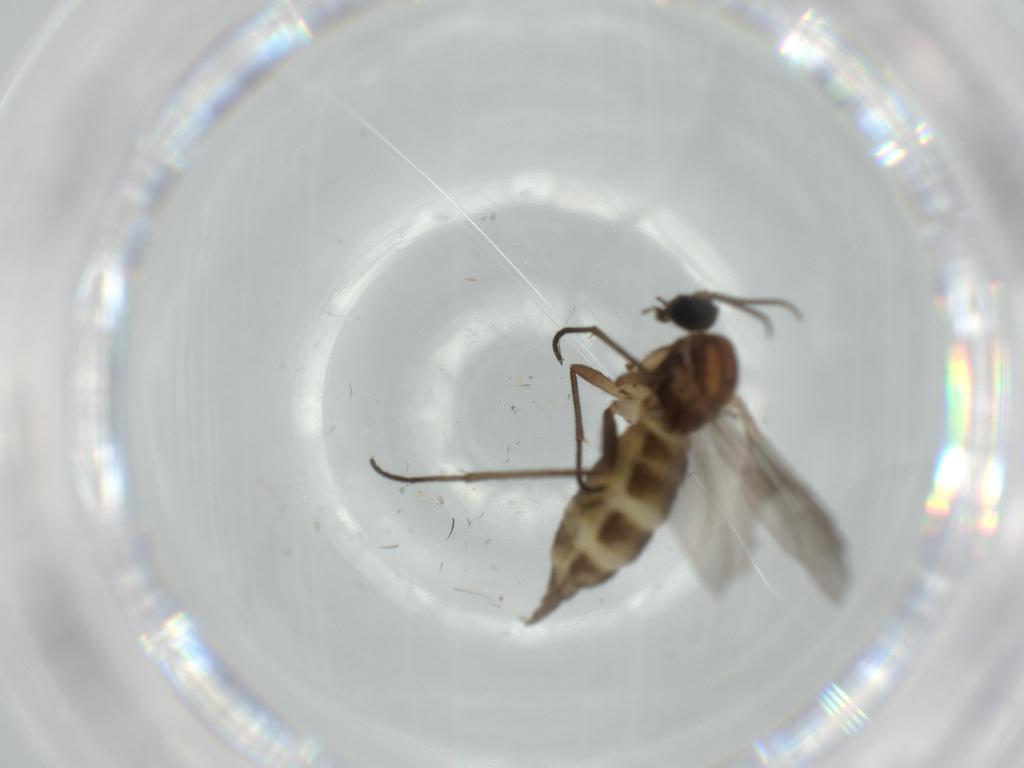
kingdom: Animalia
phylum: Arthropoda
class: Insecta
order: Diptera
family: Sciaridae
